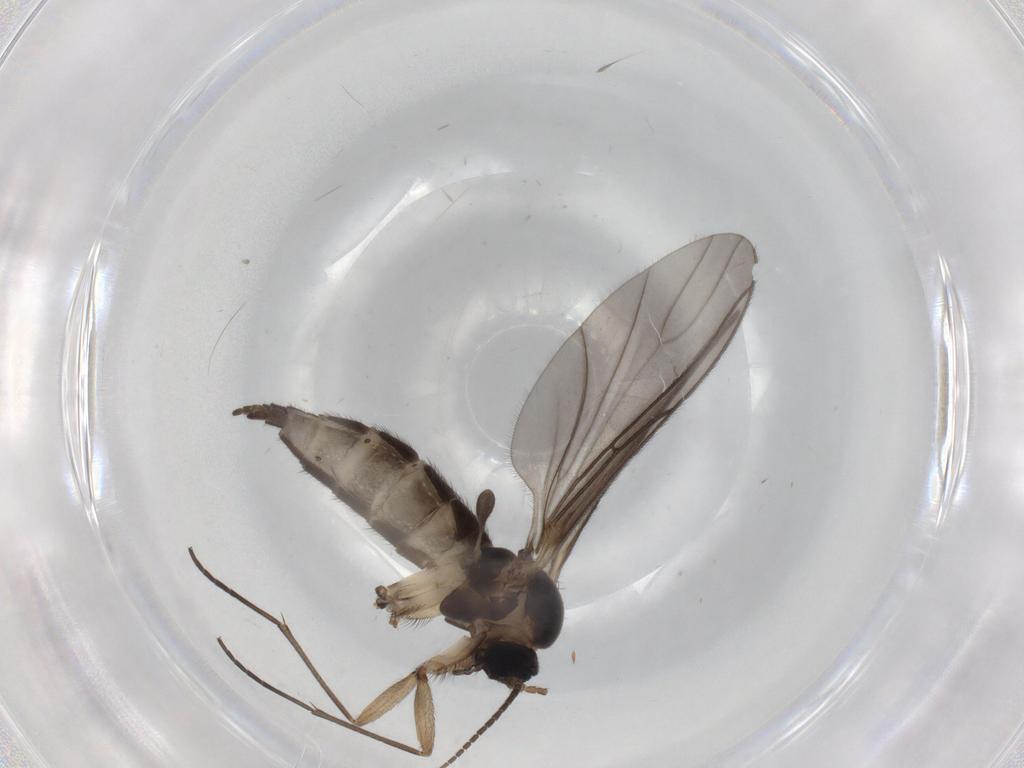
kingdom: Animalia
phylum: Arthropoda
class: Insecta
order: Diptera
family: Sciaridae
